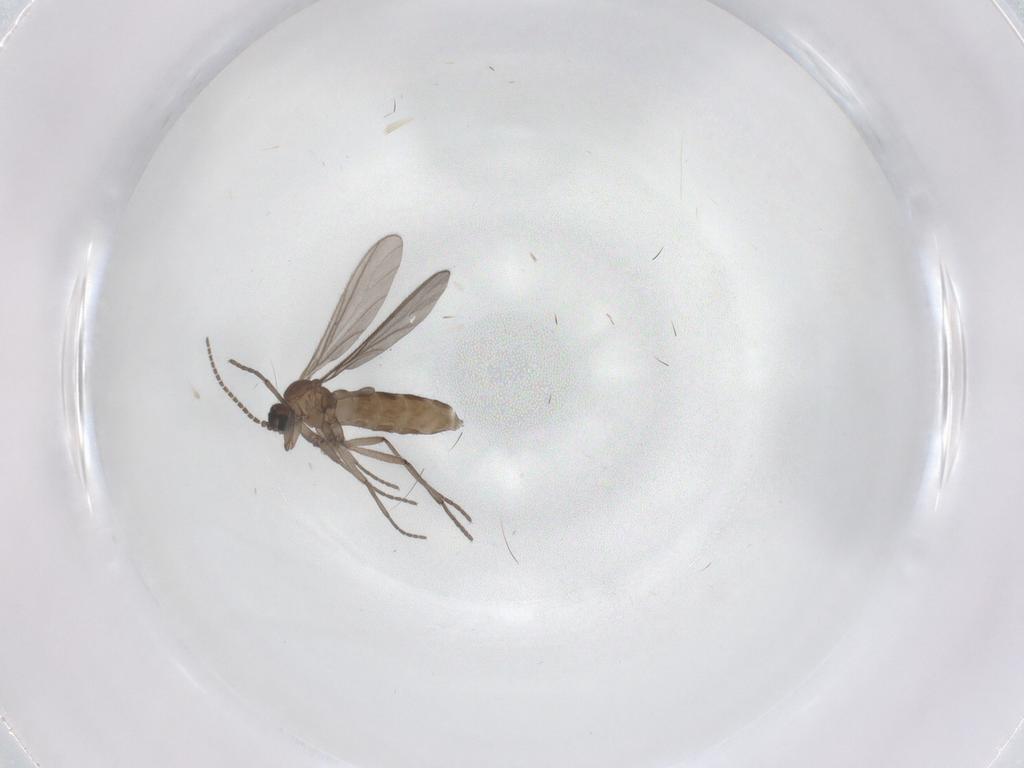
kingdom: Animalia
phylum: Arthropoda
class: Insecta
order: Diptera
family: Sciaridae
